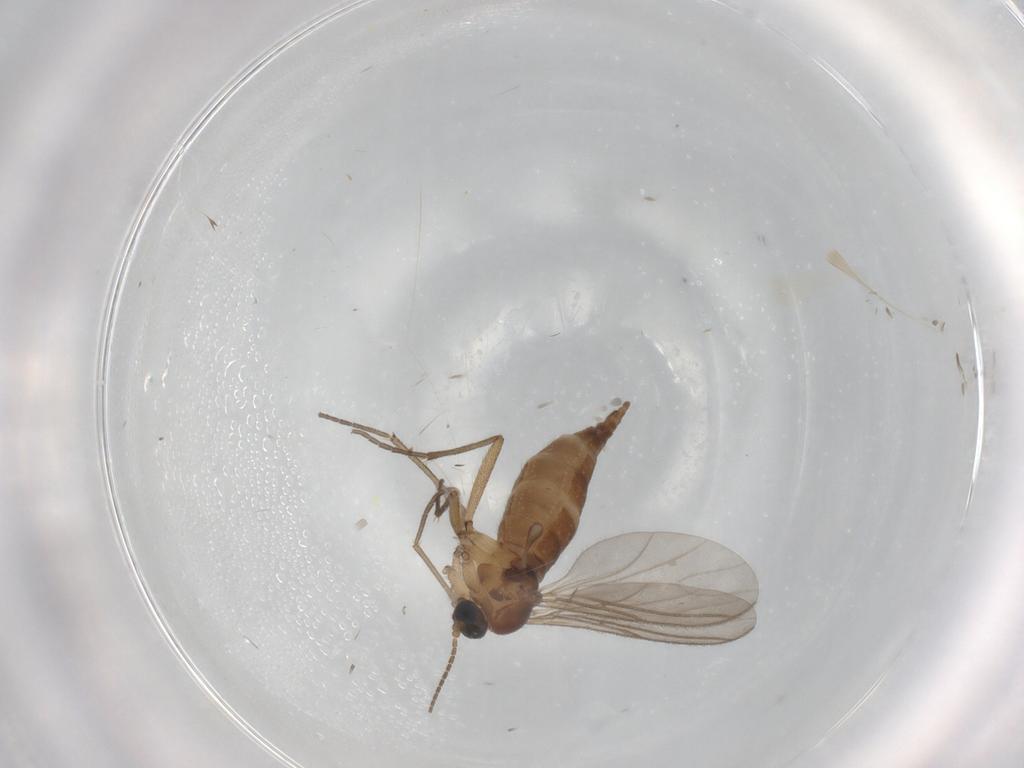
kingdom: Animalia
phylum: Arthropoda
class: Insecta
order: Diptera
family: Sciaridae
